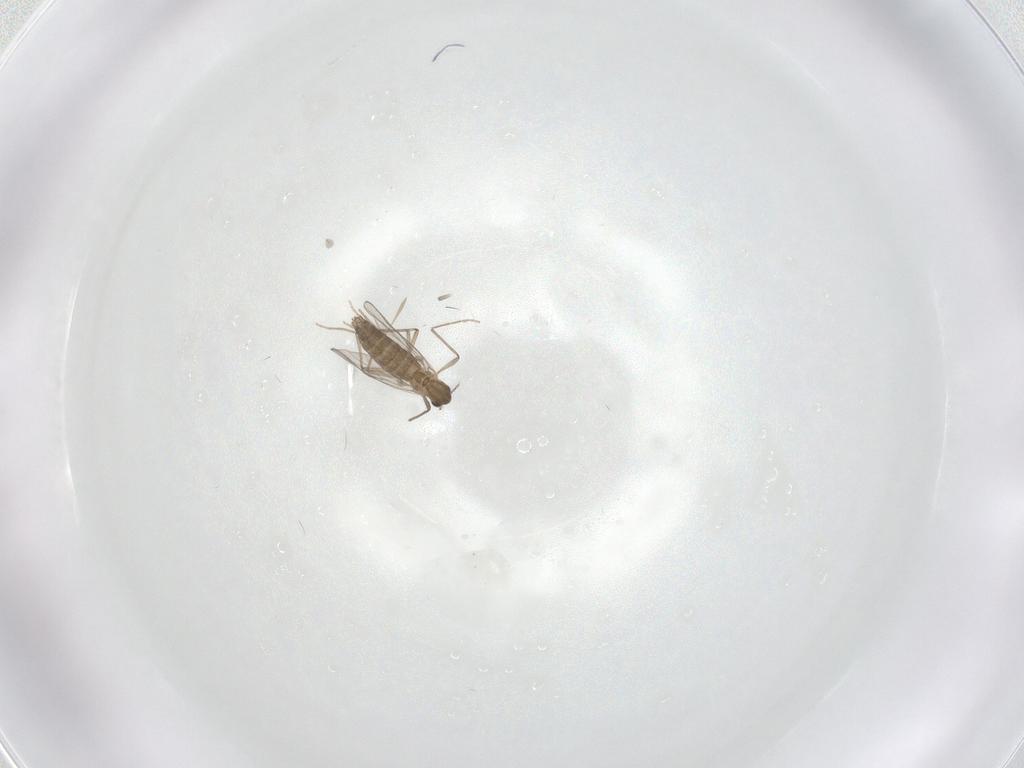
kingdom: Animalia
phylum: Arthropoda
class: Insecta
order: Diptera
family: Chironomidae
